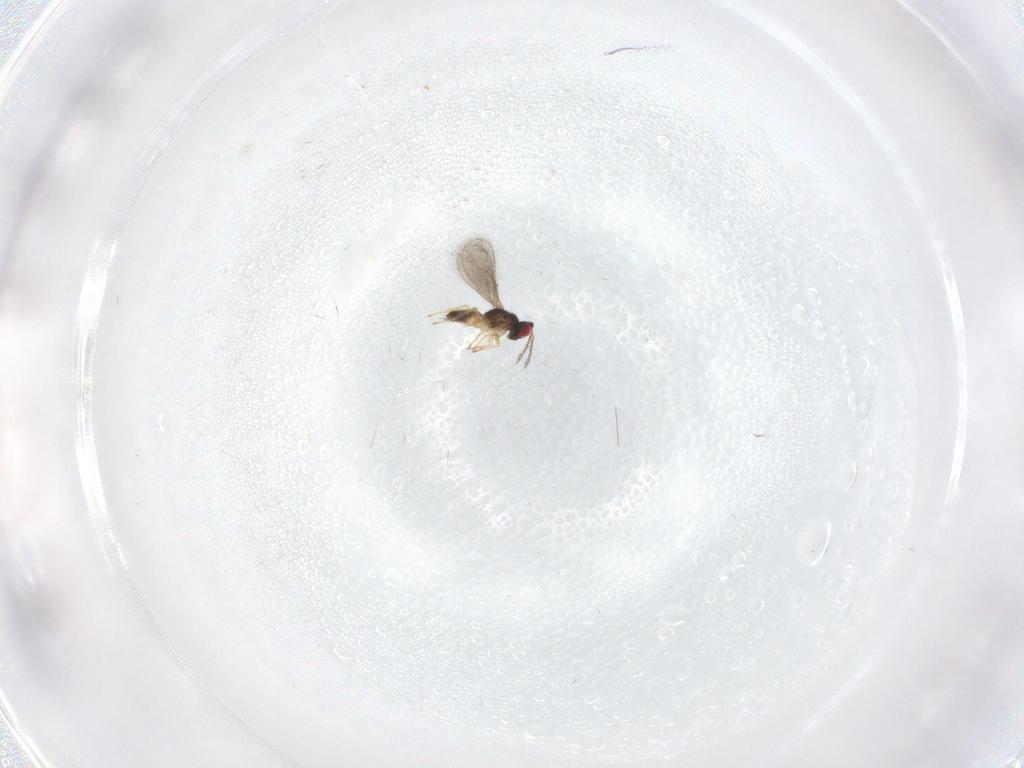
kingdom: Animalia
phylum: Arthropoda
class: Insecta
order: Hymenoptera
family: Eulophidae
